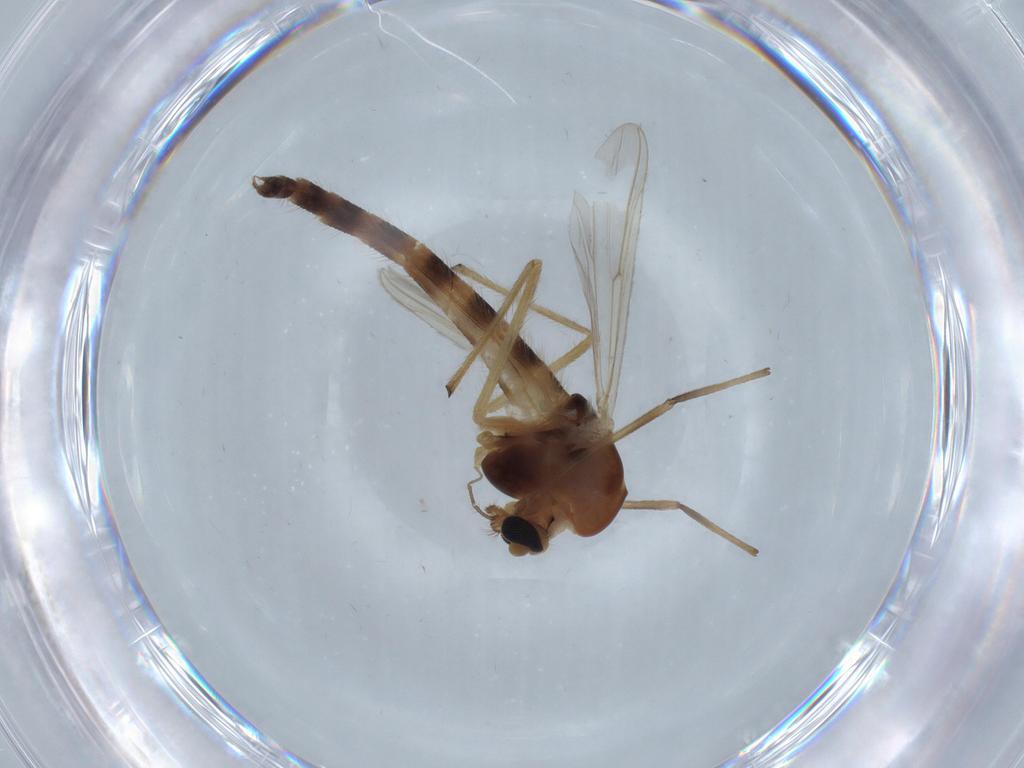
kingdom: Animalia
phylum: Arthropoda
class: Insecta
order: Diptera
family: Chironomidae
